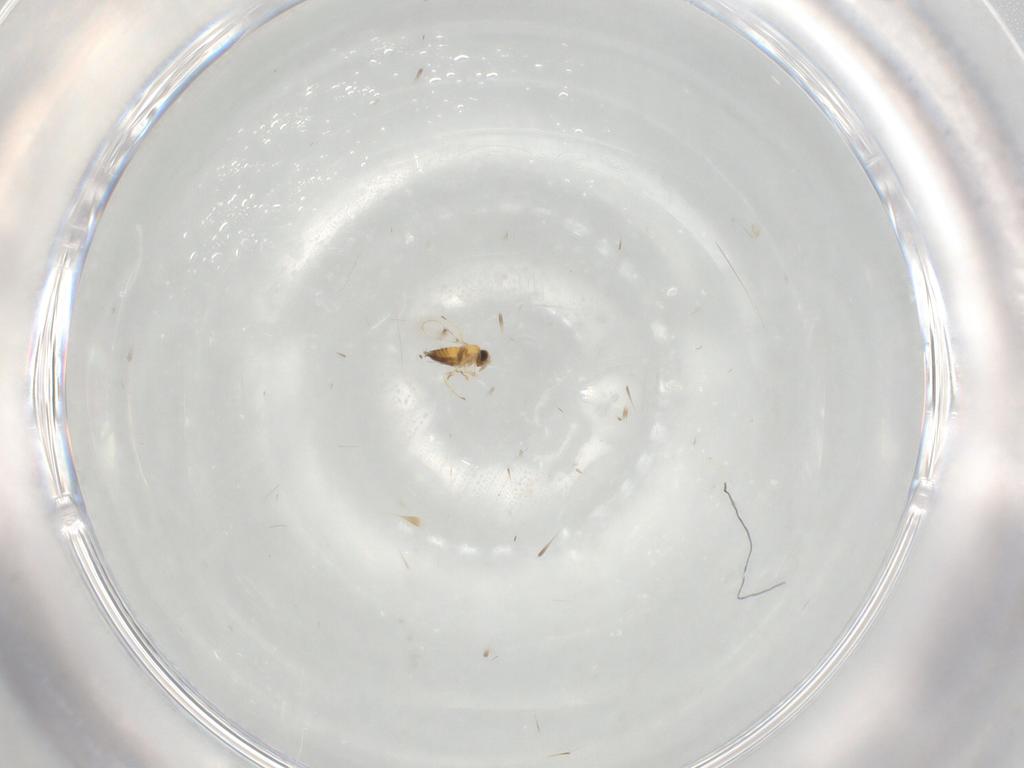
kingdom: Animalia
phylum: Arthropoda
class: Insecta
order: Hymenoptera
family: Trichogrammatidae
